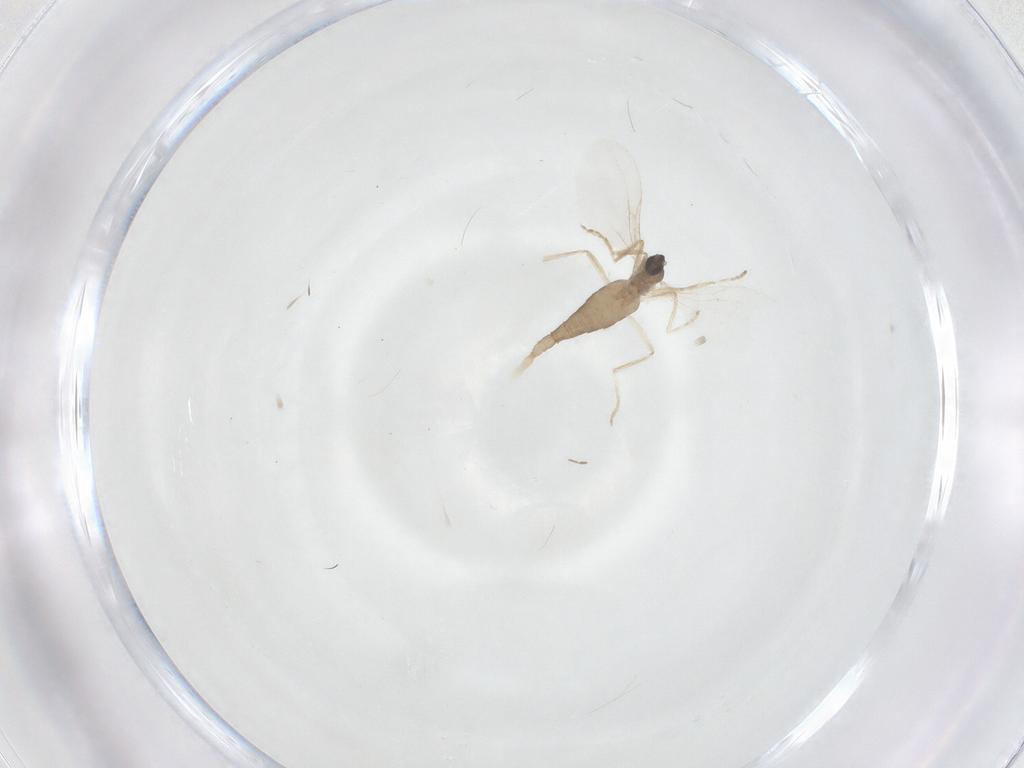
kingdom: Animalia
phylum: Arthropoda
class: Insecta
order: Diptera
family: Cecidomyiidae
